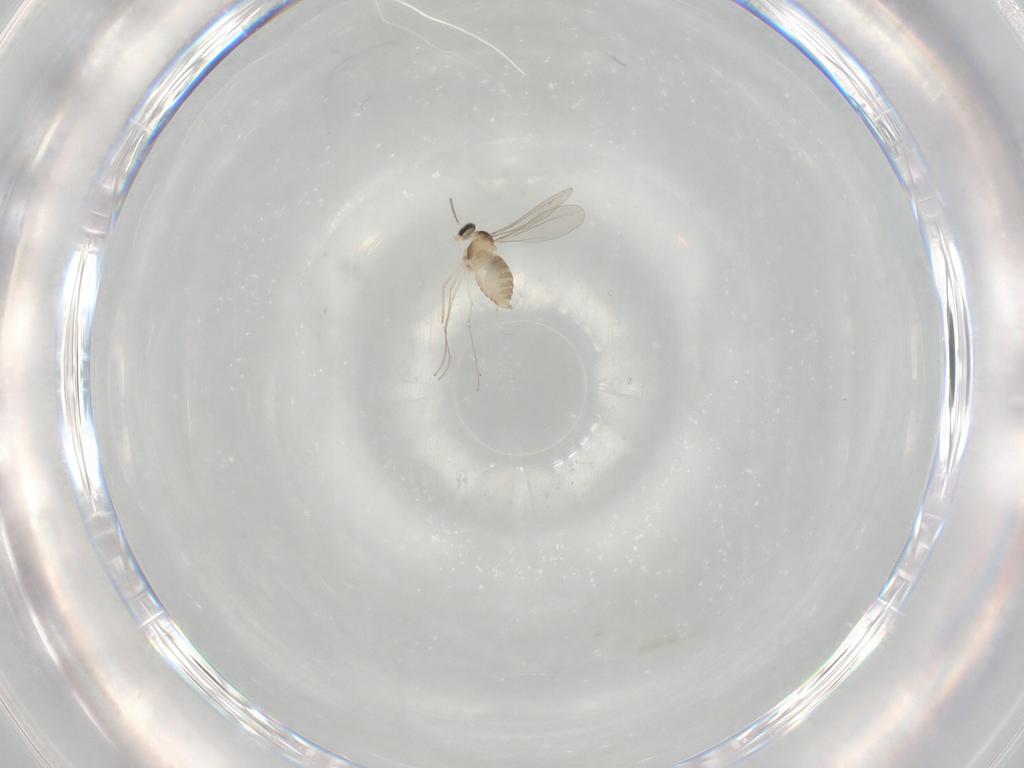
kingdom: Animalia
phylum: Arthropoda
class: Insecta
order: Diptera
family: Cecidomyiidae
